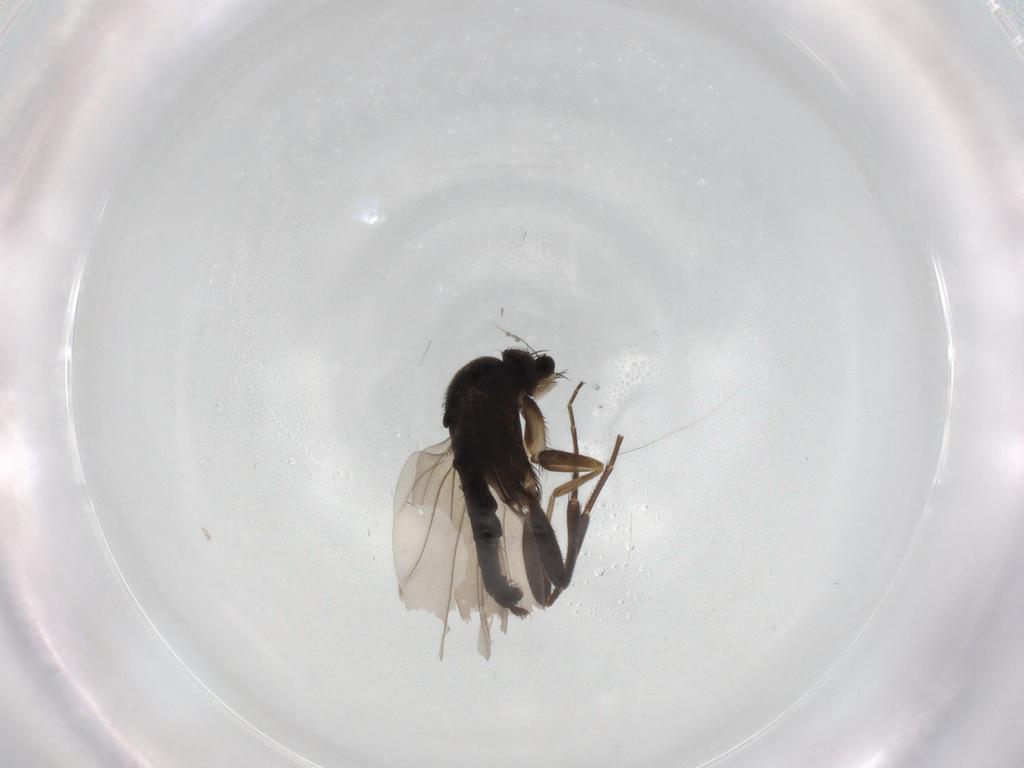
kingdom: Animalia
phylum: Arthropoda
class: Insecta
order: Diptera
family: Phoridae
